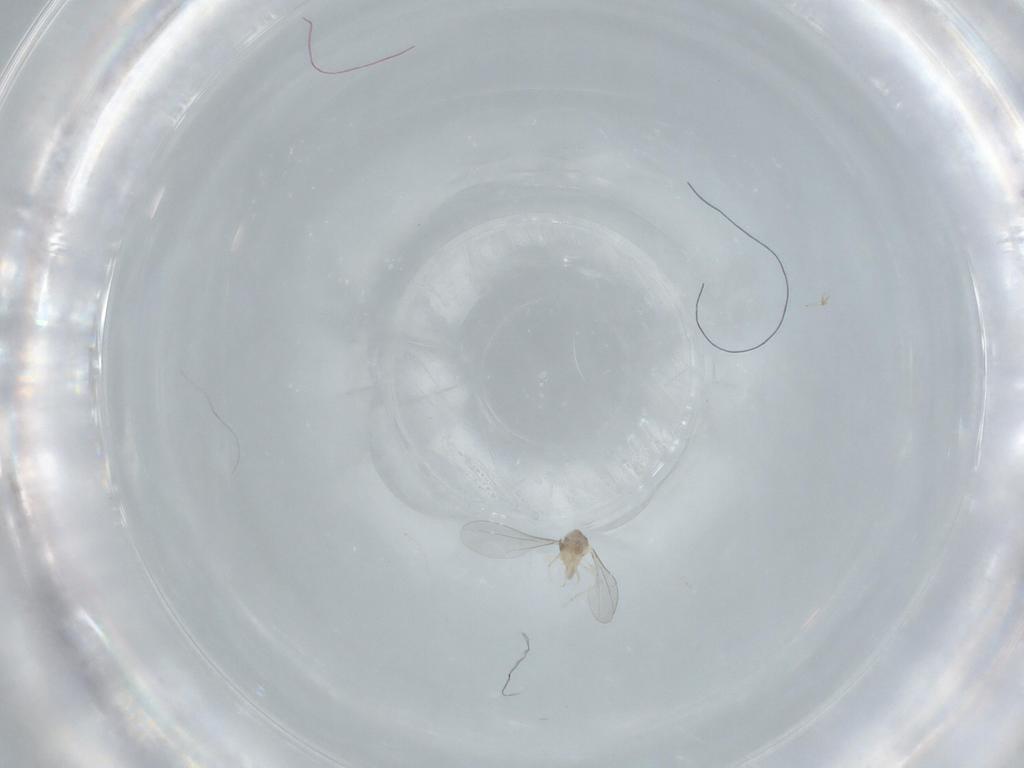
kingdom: Animalia
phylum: Arthropoda
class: Insecta
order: Diptera
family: Cecidomyiidae
